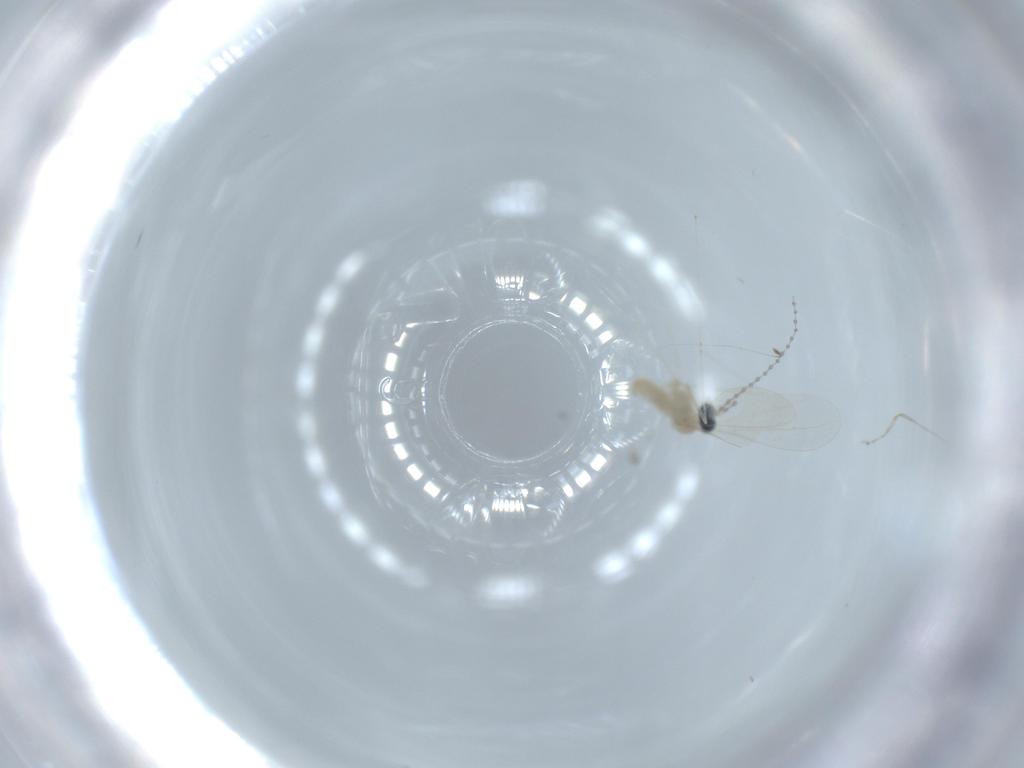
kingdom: Animalia
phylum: Arthropoda
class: Insecta
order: Diptera
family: Cecidomyiidae
